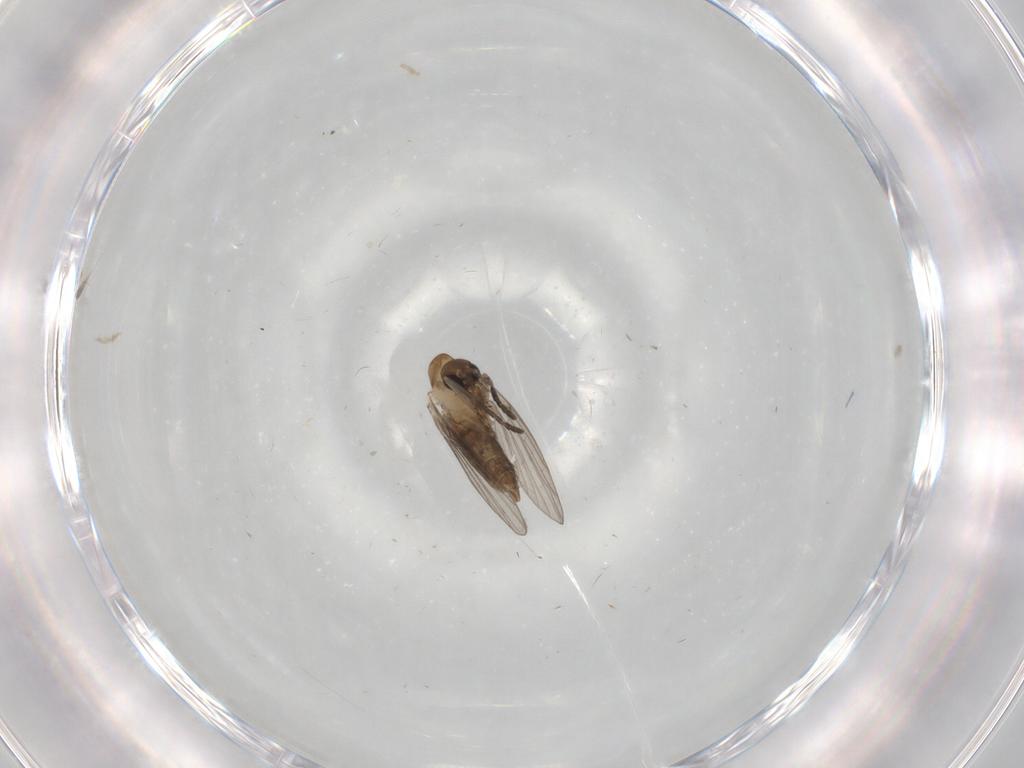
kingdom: Animalia
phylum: Arthropoda
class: Insecta
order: Diptera
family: Psychodidae
